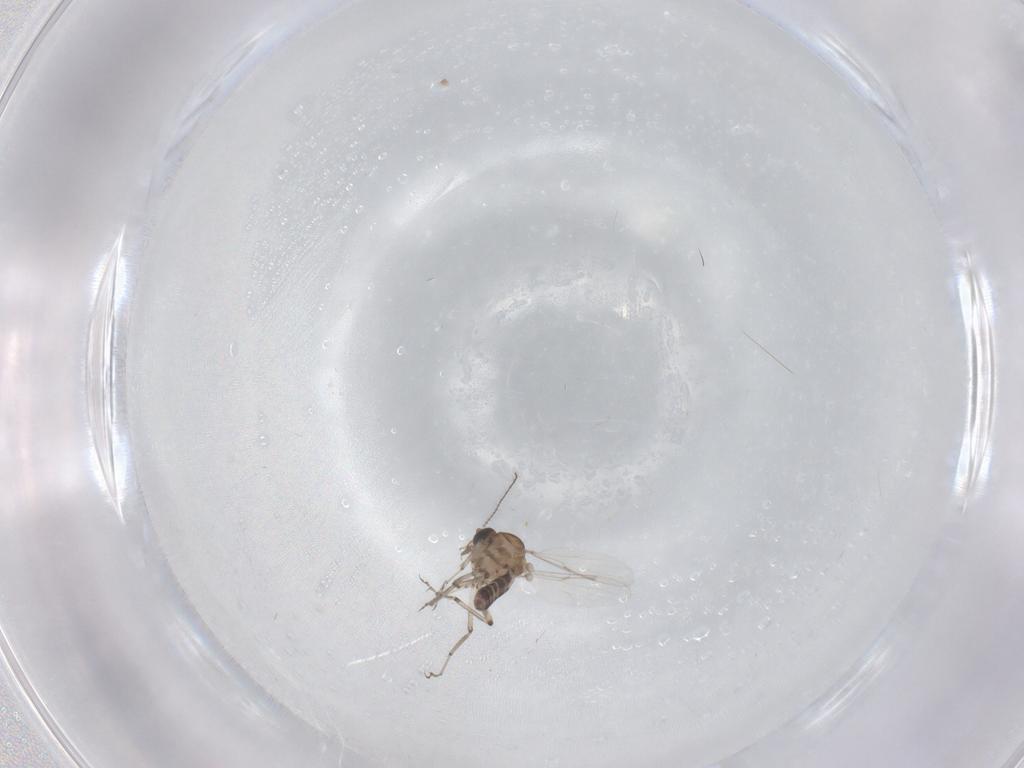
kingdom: Animalia
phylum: Arthropoda
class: Insecta
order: Diptera
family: Ceratopogonidae
